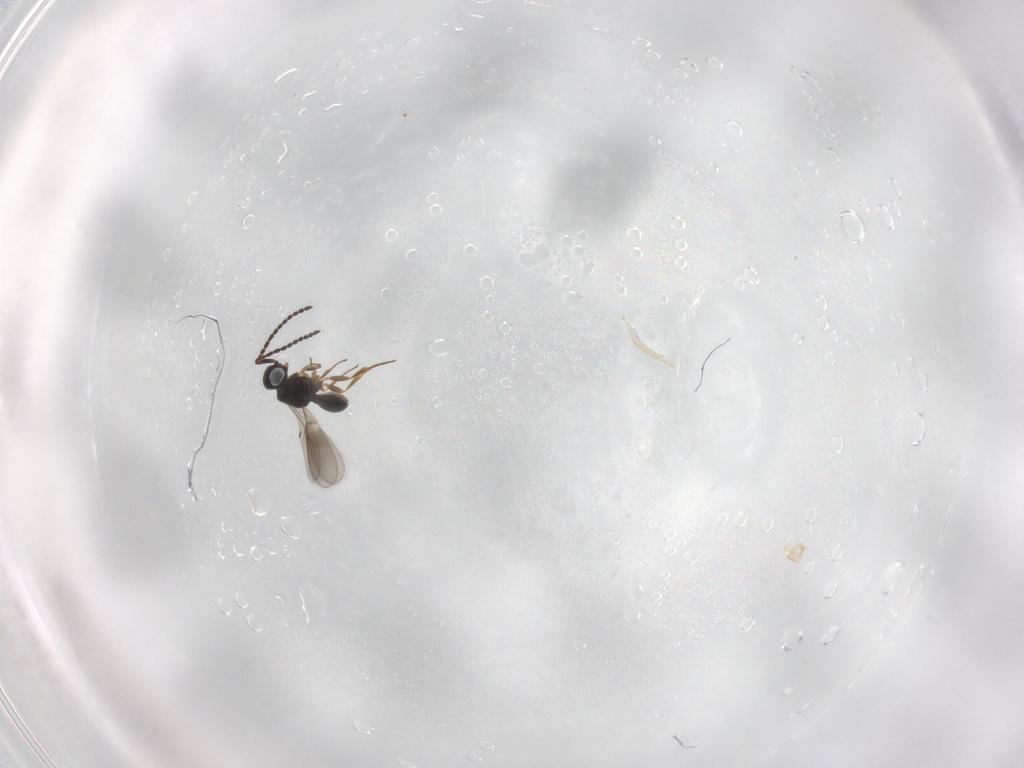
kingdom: Animalia
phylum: Arthropoda
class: Insecta
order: Hymenoptera
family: Scelionidae
